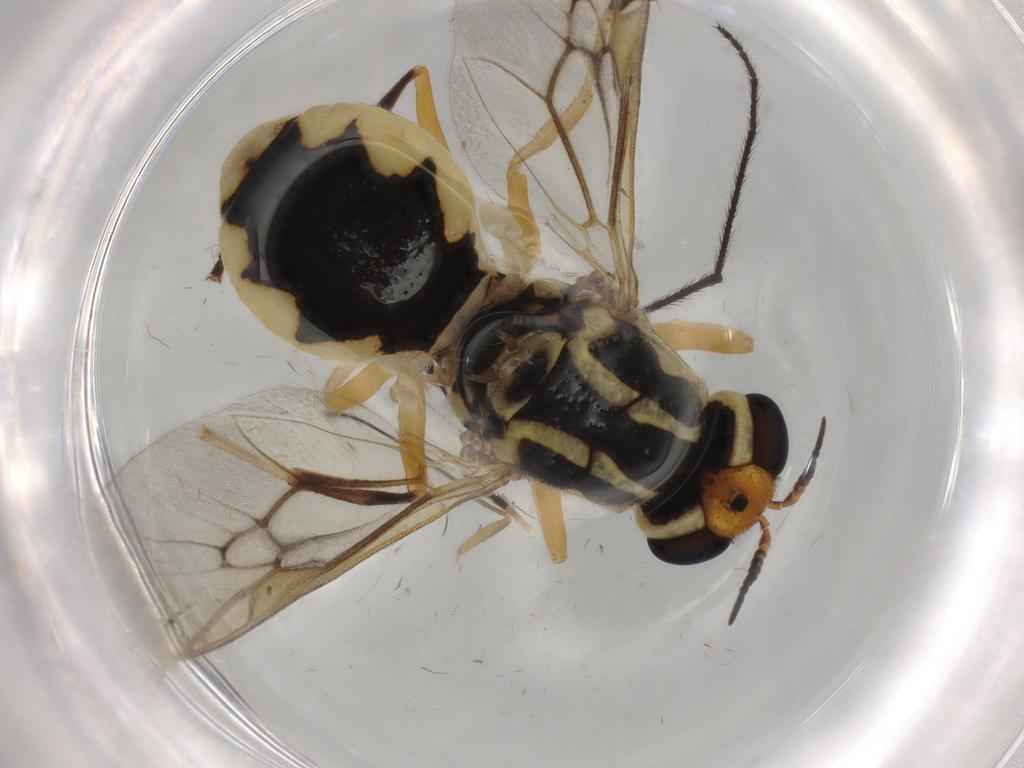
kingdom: Animalia
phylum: Arthropoda
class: Insecta
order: Diptera
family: Stratiomyidae
